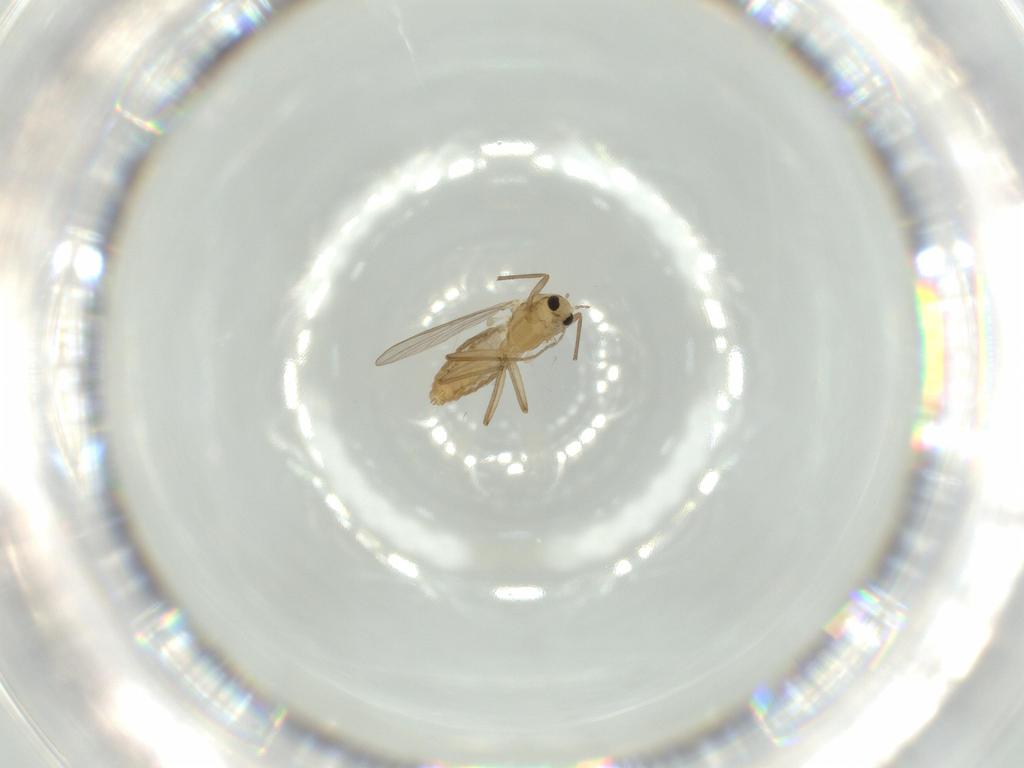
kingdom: Animalia
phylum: Arthropoda
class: Insecta
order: Diptera
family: Chironomidae
